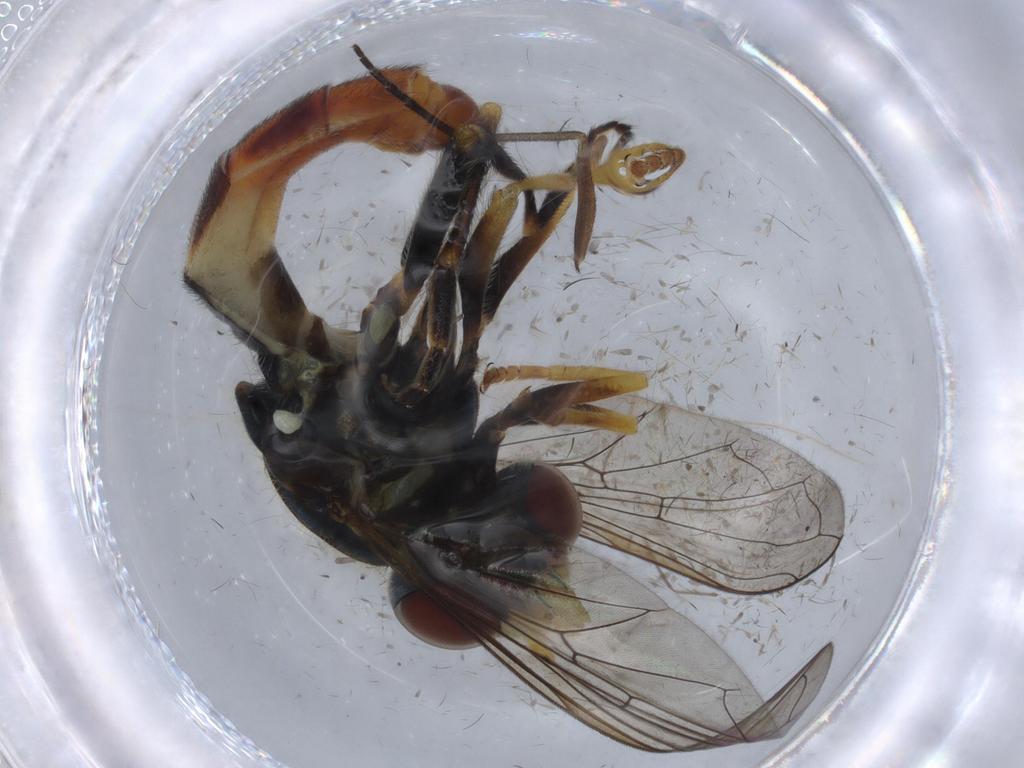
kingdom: Animalia
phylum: Arthropoda
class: Insecta
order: Diptera
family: Syrphidae
